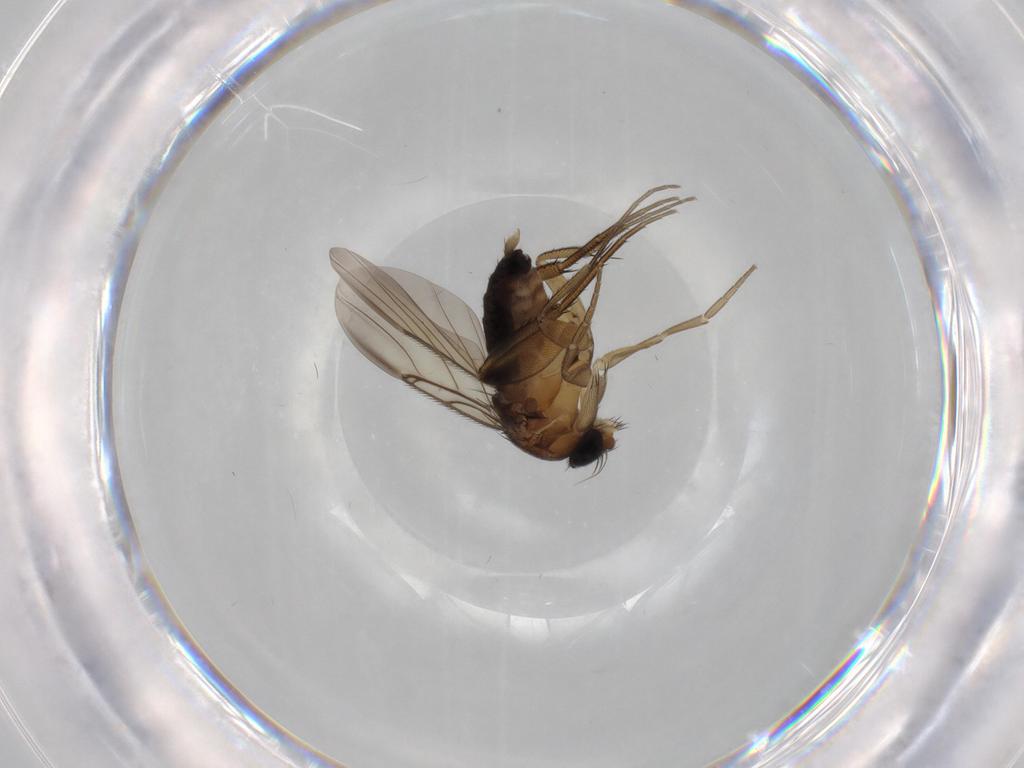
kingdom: Animalia
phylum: Arthropoda
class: Insecta
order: Diptera
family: Phoridae
